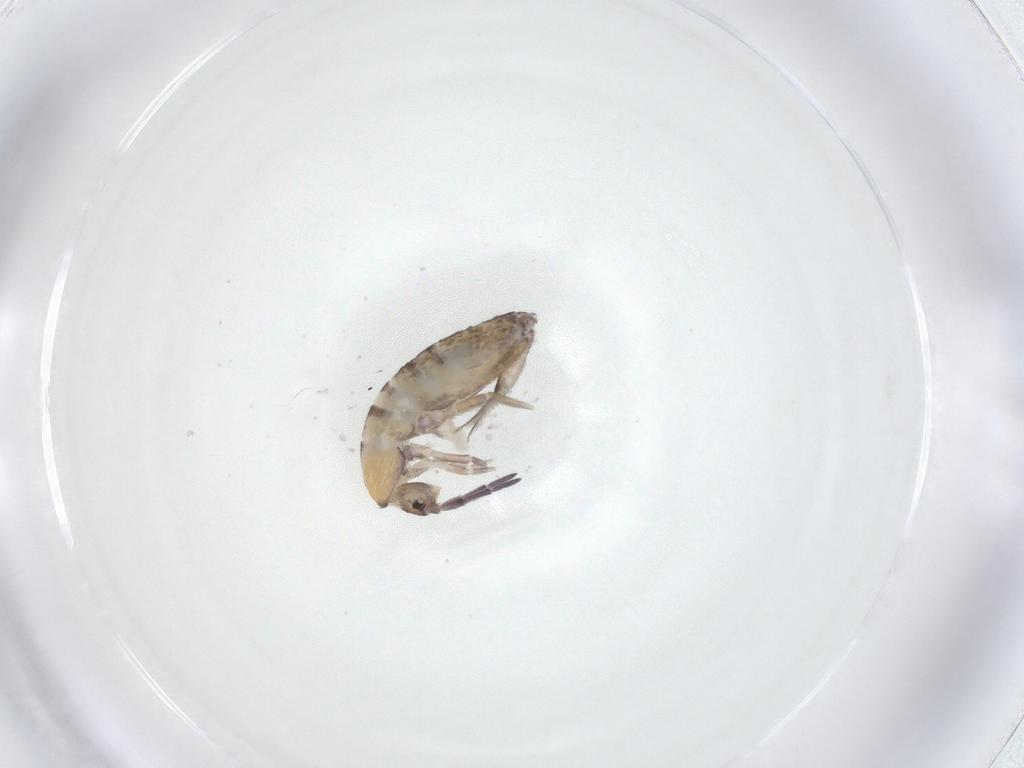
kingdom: Animalia
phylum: Arthropoda
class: Collembola
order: Entomobryomorpha
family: Entomobryidae
